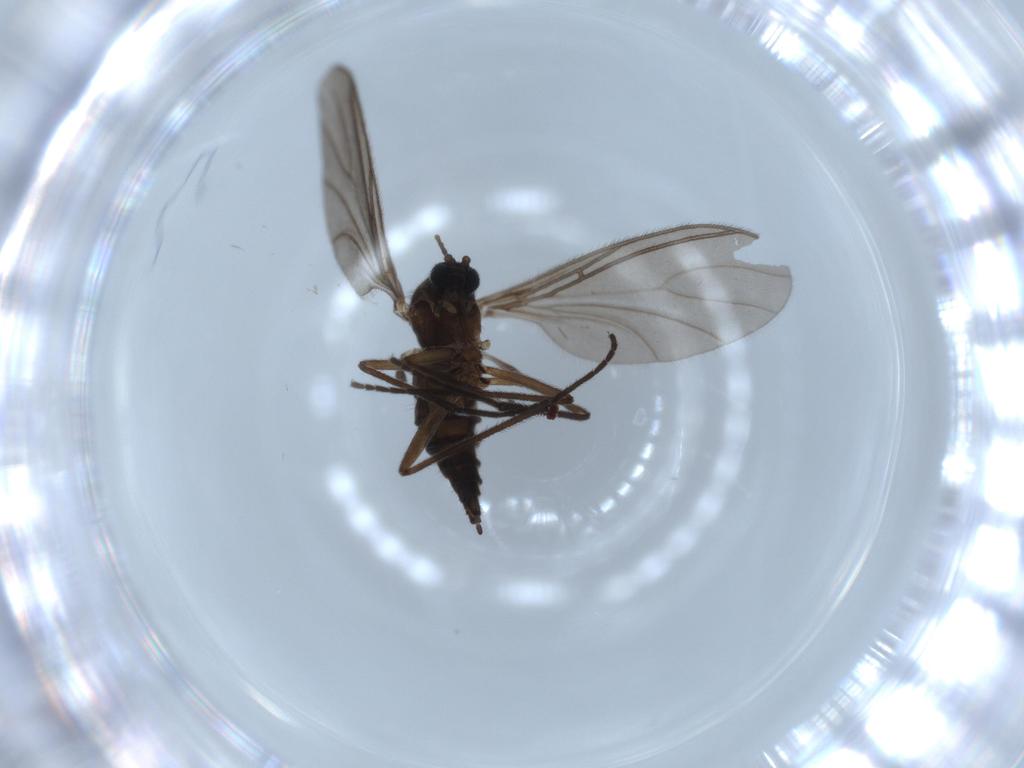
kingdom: Animalia
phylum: Arthropoda
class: Insecta
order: Diptera
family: Sciaridae
